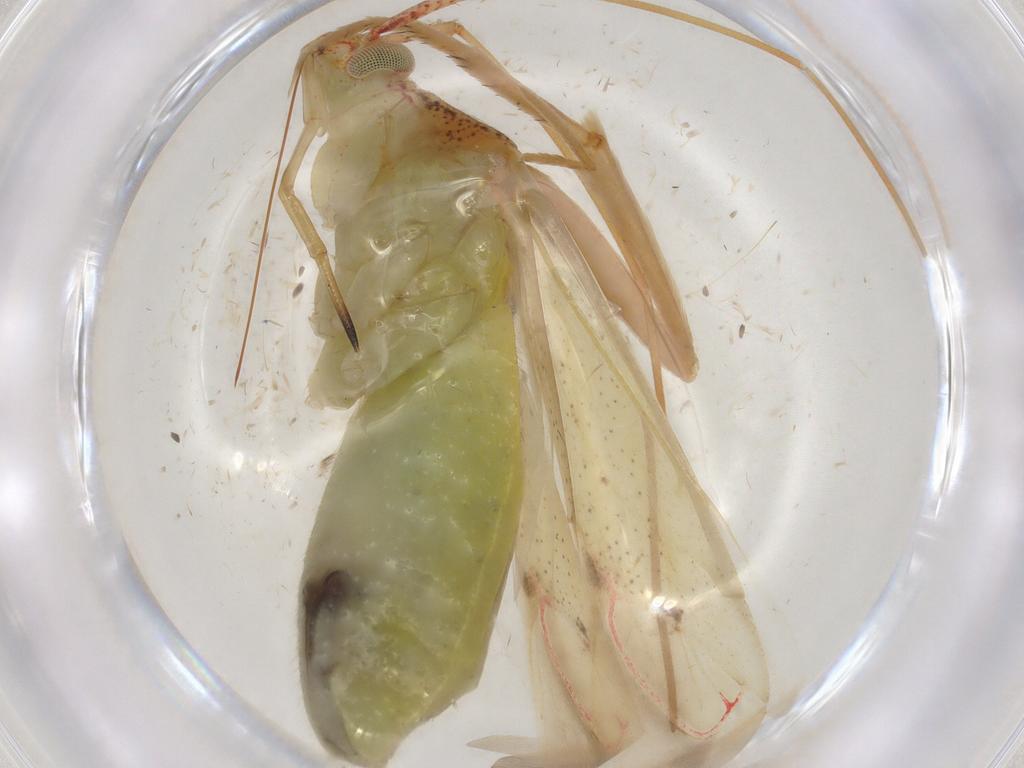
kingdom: Animalia
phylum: Arthropoda
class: Insecta
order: Hemiptera
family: Miridae
